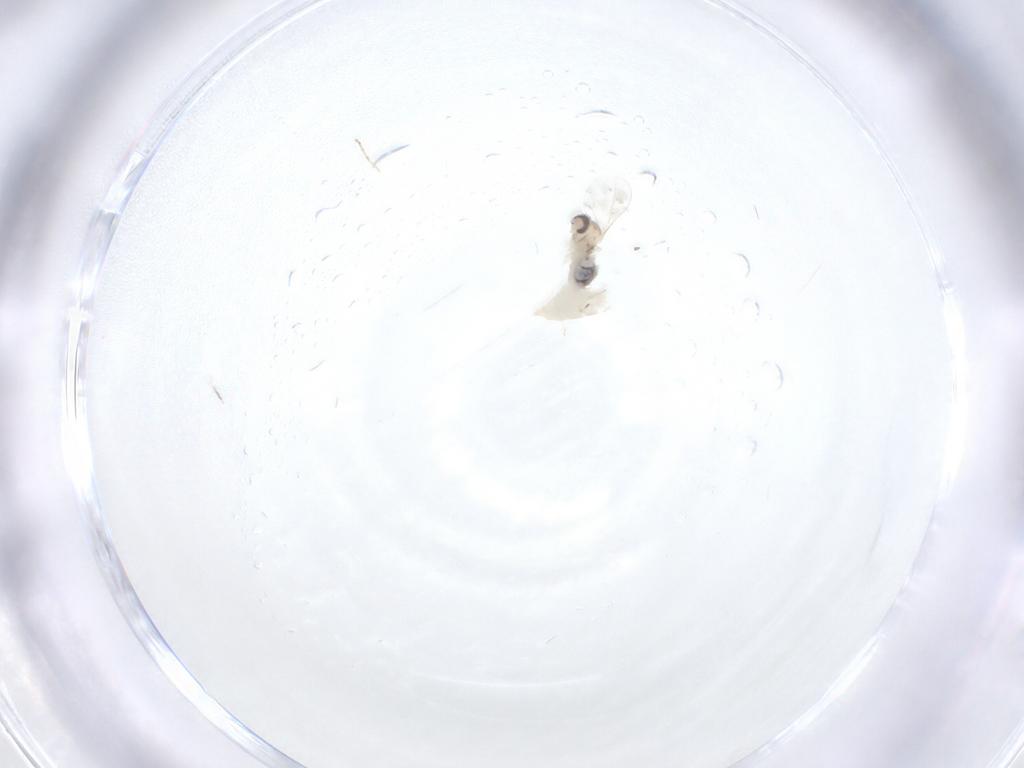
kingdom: Animalia
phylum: Arthropoda
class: Insecta
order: Diptera
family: Cecidomyiidae
